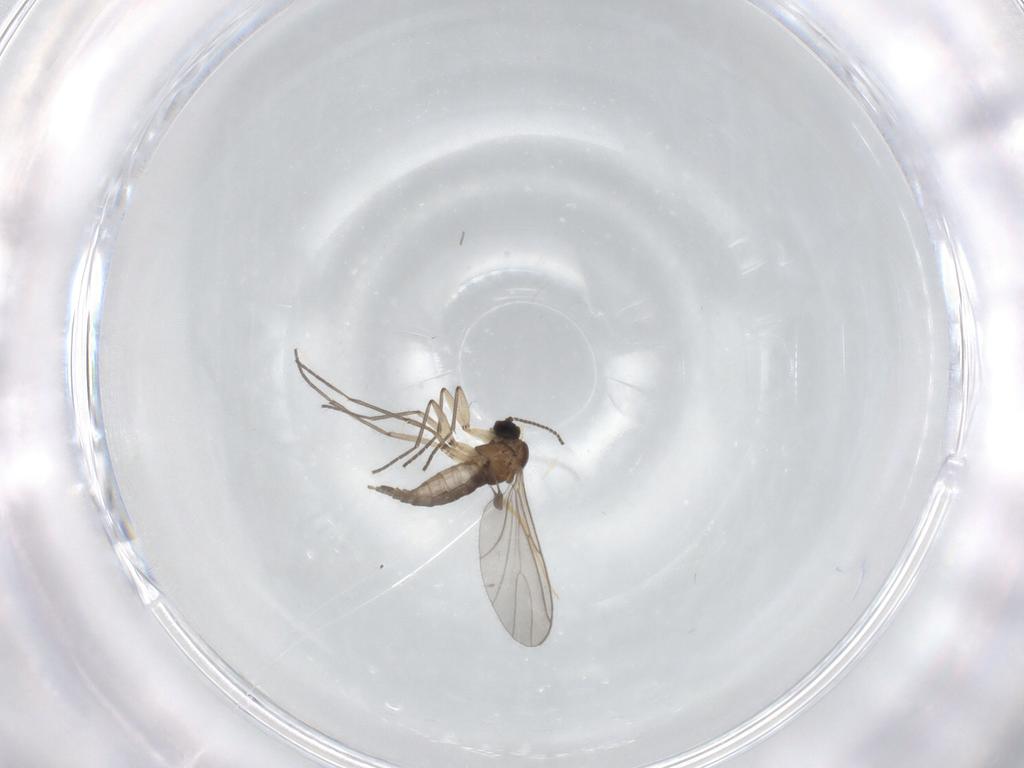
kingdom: Animalia
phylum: Arthropoda
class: Insecta
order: Diptera
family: Sciaridae
